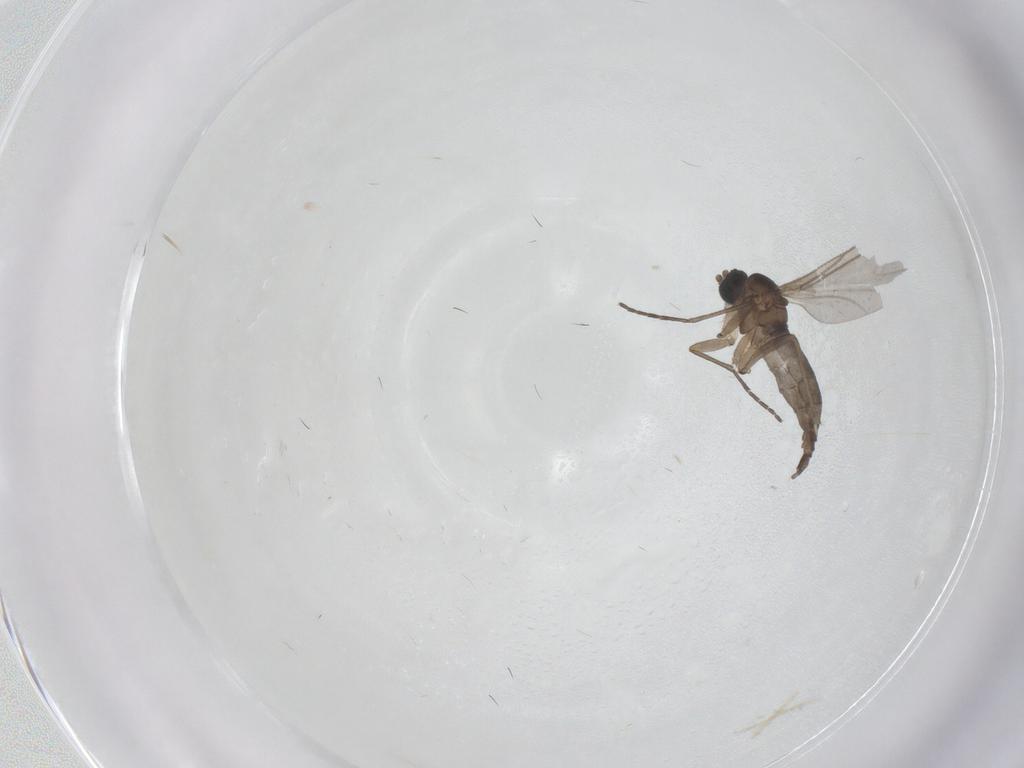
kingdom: Animalia
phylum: Arthropoda
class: Insecta
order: Diptera
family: Sciaridae
